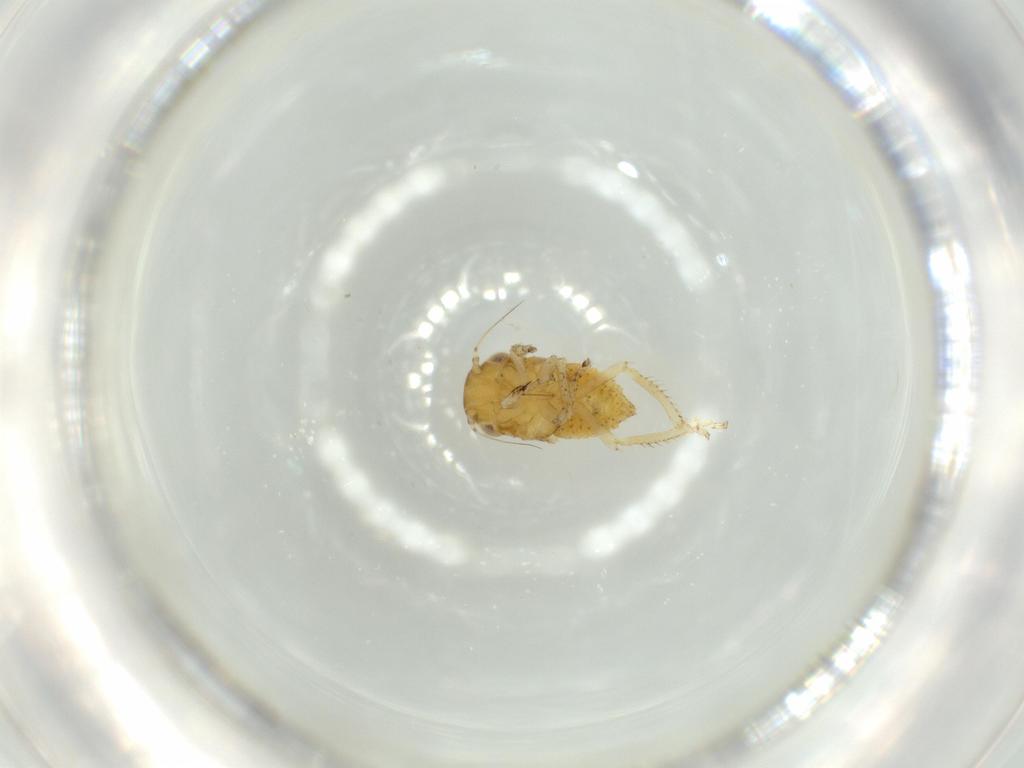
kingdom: Animalia
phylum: Arthropoda
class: Insecta
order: Hemiptera
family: Cicadellidae
